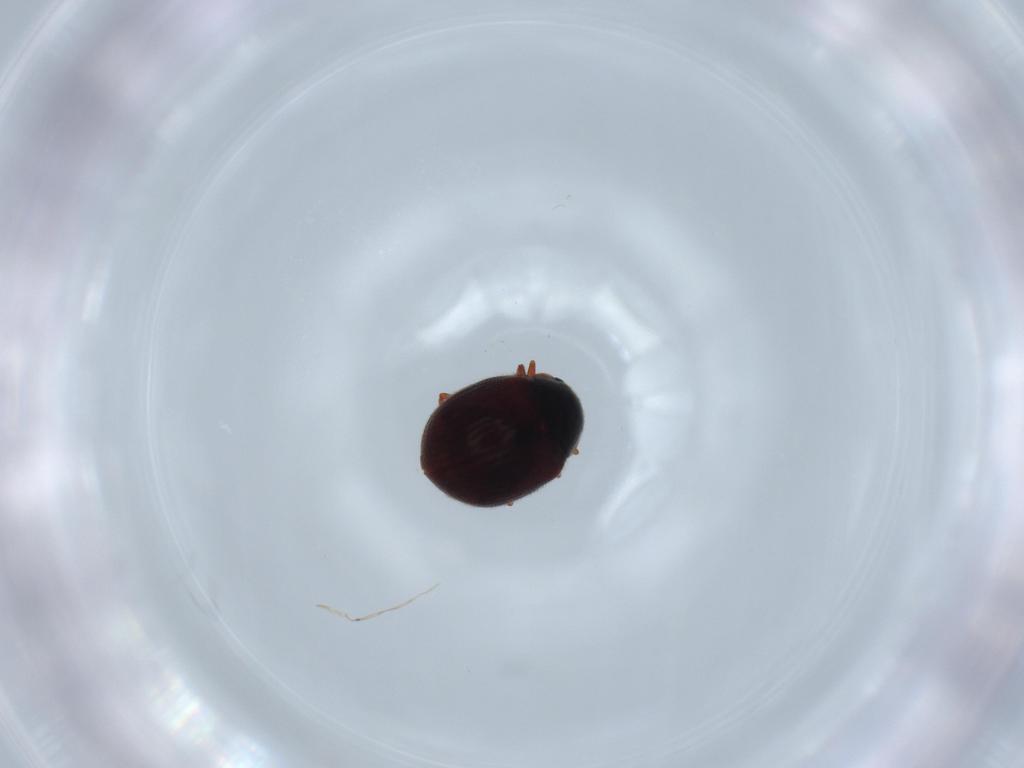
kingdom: Animalia
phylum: Arthropoda
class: Insecta
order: Coleoptera
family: Sphindidae
